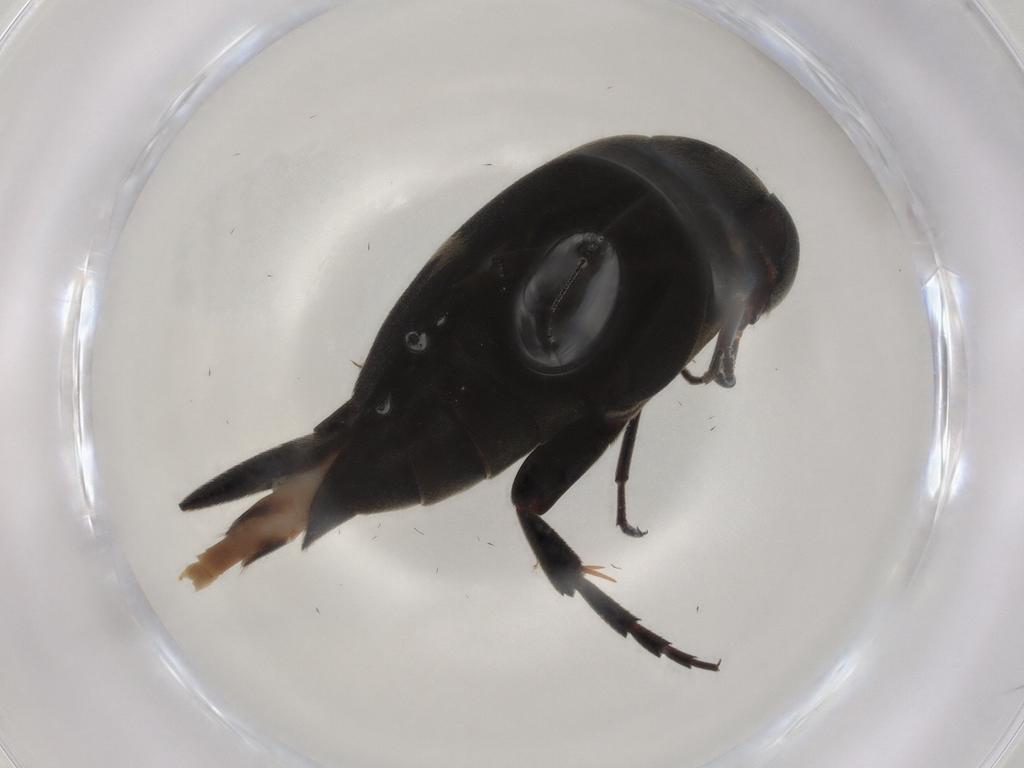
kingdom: Animalia
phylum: Arthropoda
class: Insecta
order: Coleoptera
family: Mordellidae
